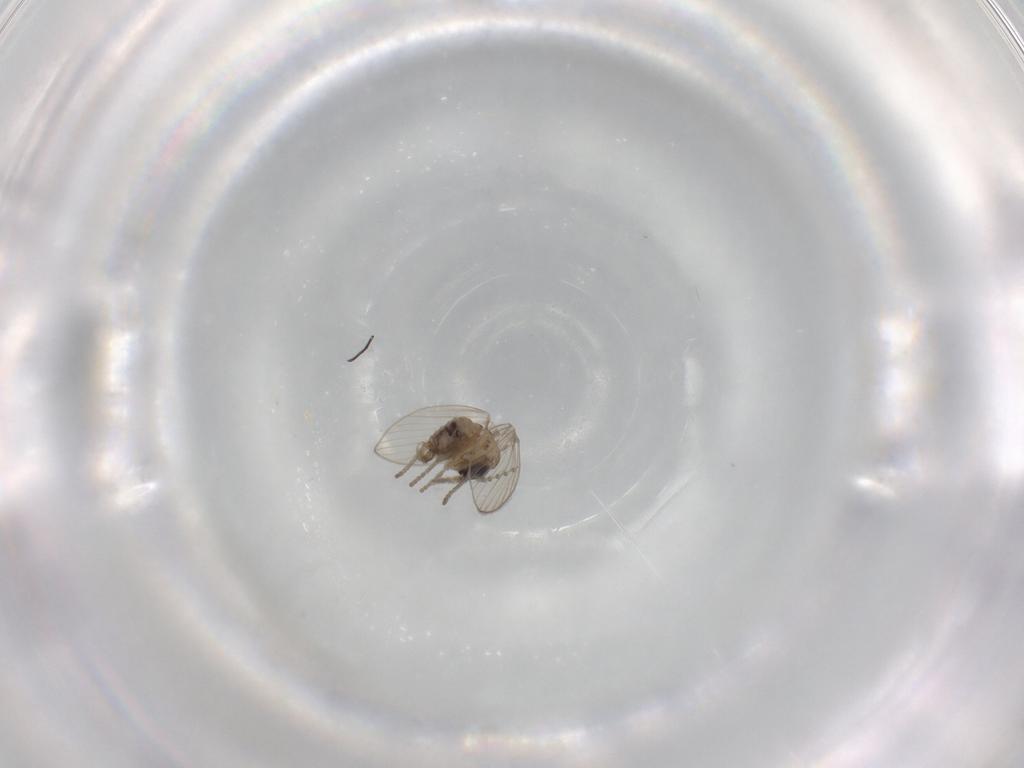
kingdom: Animalia
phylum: Arthropoda
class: Insecta
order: Diptera
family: Psychodidae
